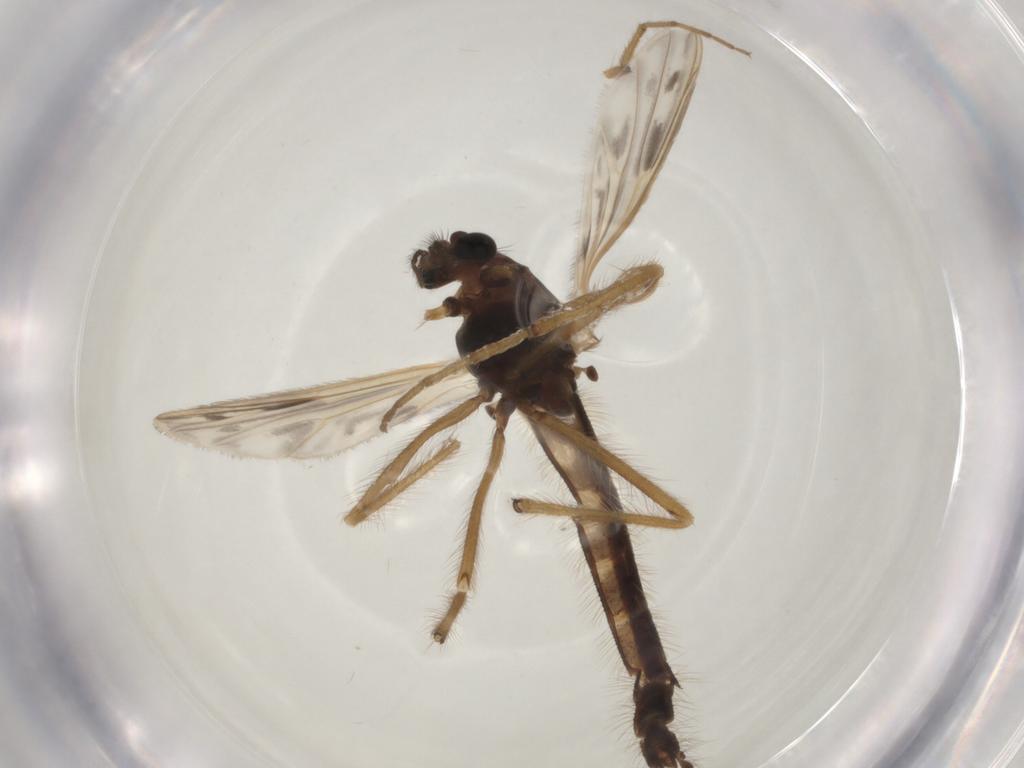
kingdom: Animalia
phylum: Arthropoda
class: Insecta
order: Diptera
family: Chironomidae
